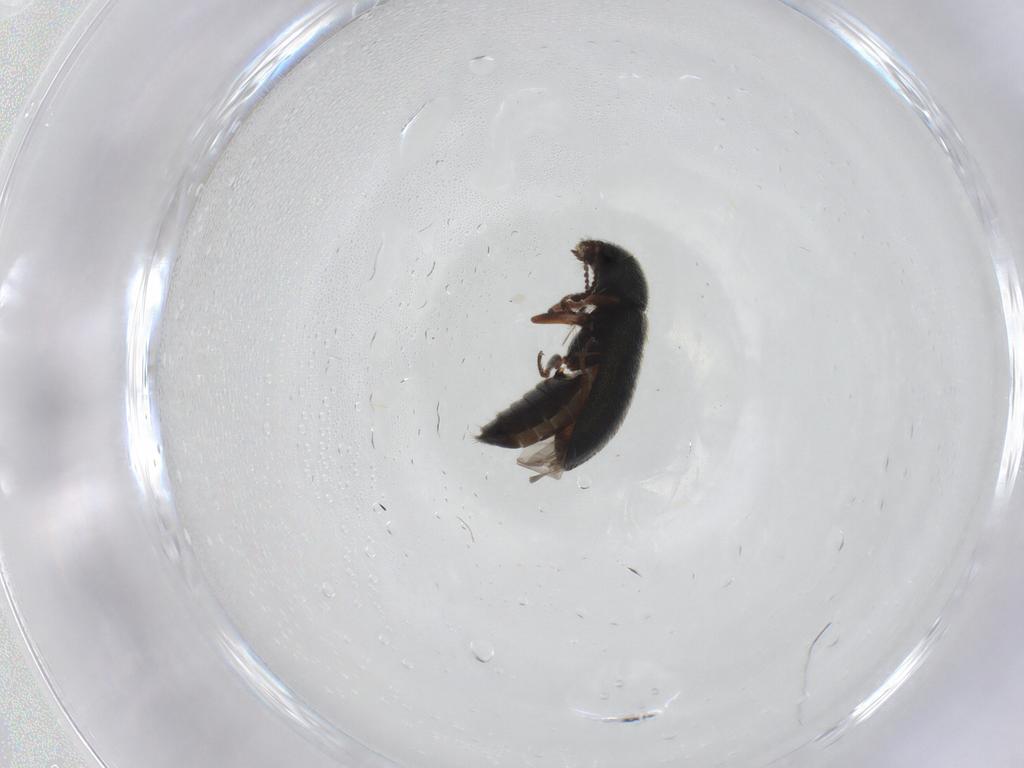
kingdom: Animalia
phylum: Arthropoda
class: Insecta
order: Coleoptera
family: Melyridae
